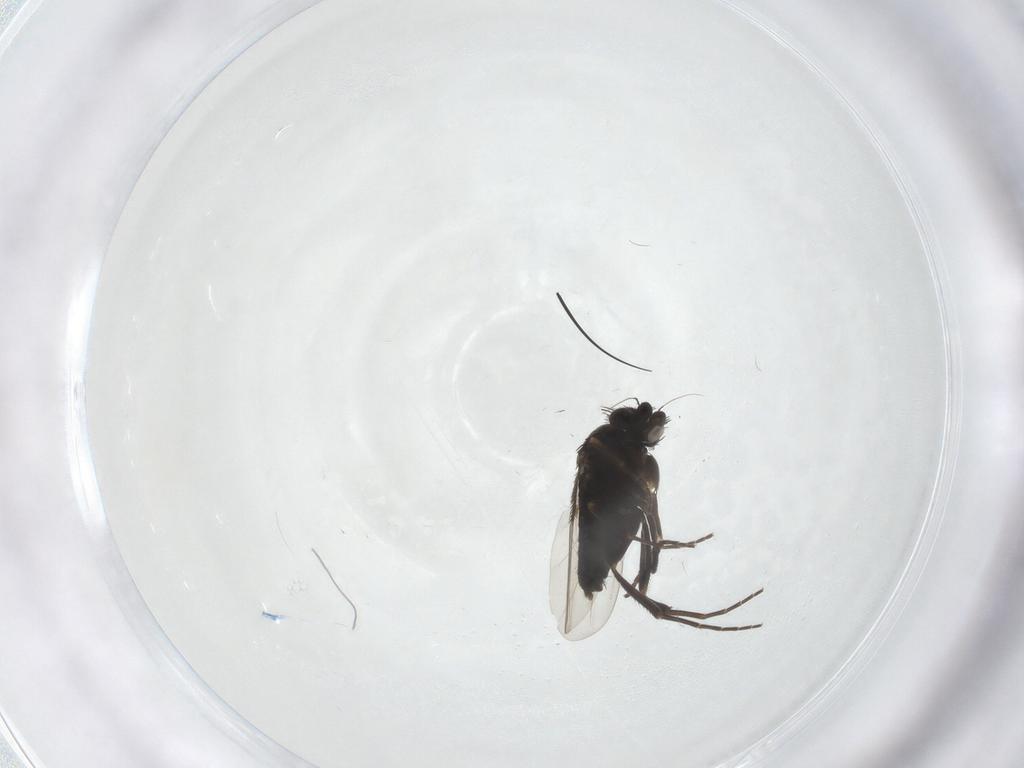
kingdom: Animalia
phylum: Arthropoda
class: Insecta
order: Diptera
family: Phoridae
